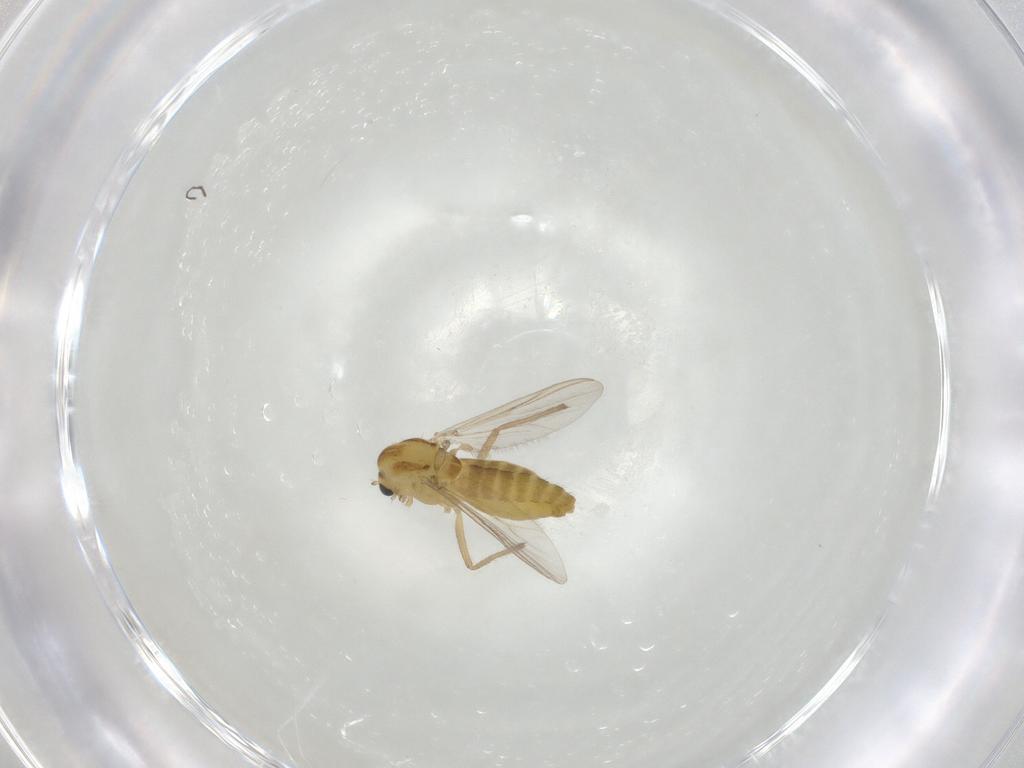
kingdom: Animalia
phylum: Arthropoda
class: Insecta
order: Diptera
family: Chironomidae
